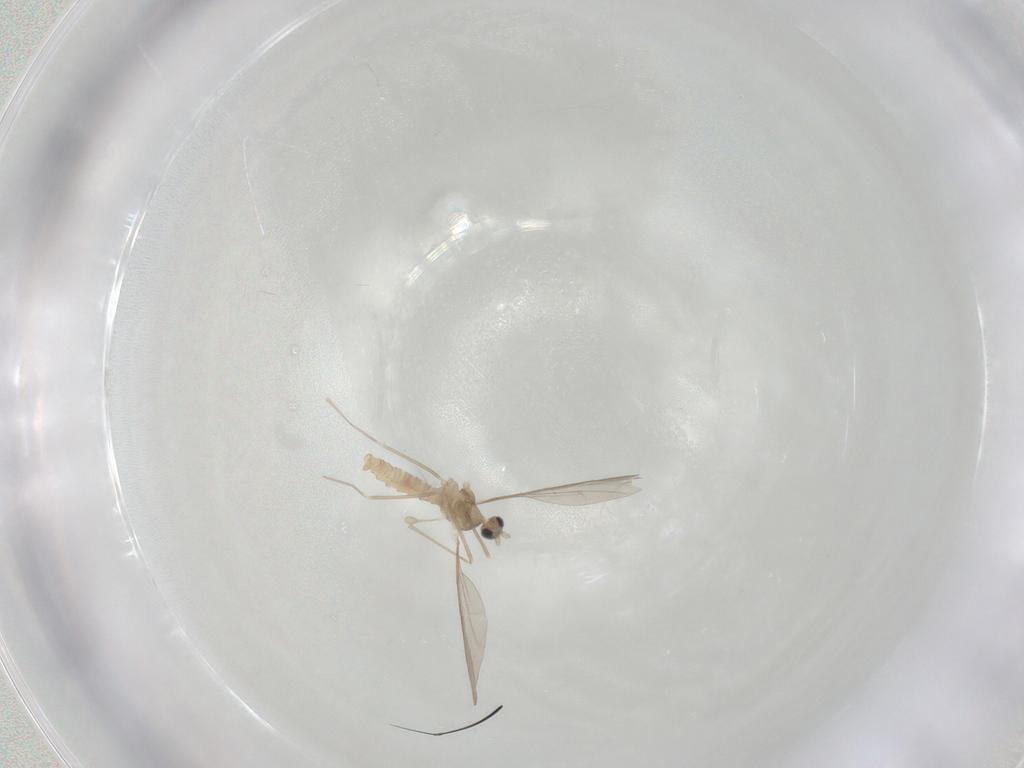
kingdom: Animalia
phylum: Arthropoda
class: Insecta
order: Diptera
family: Cecidomyiidae
